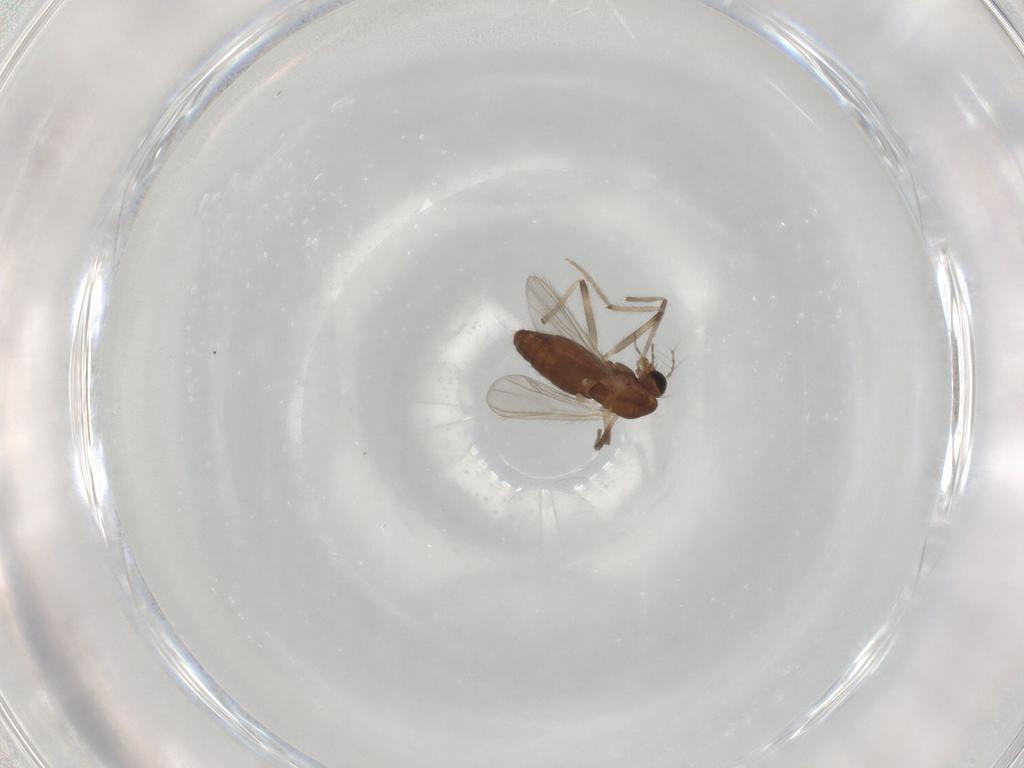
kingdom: Animalia
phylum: Arthropoda
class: Insecta
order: Diptera
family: Chironomidae
